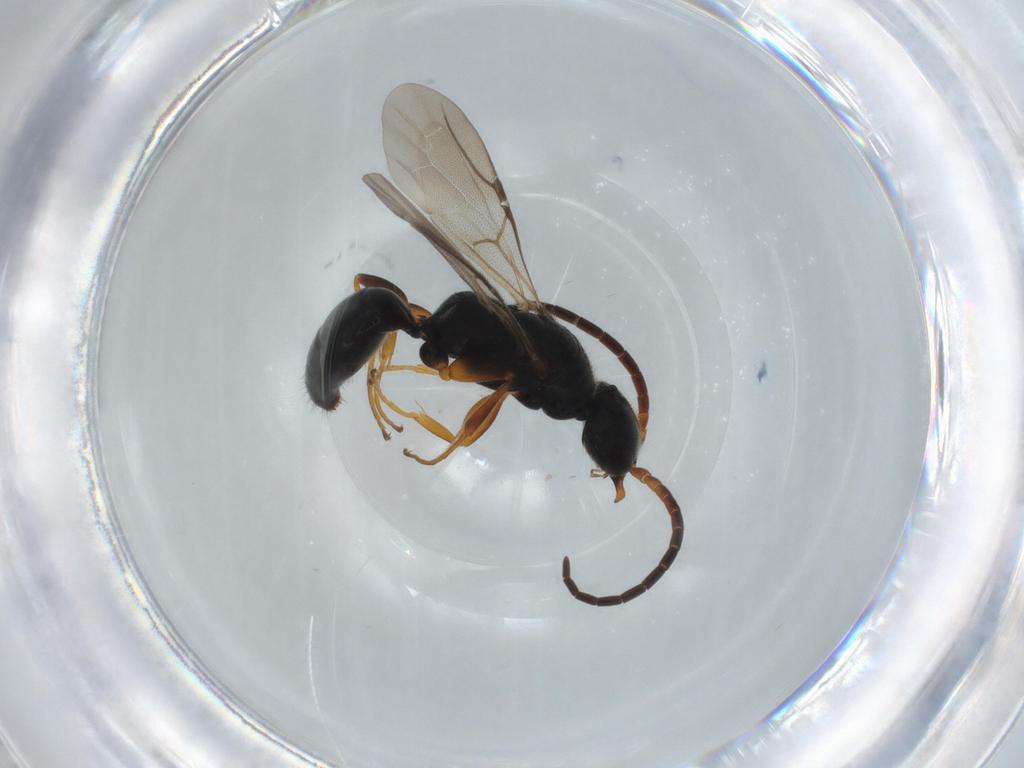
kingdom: Animalia
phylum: Arthropoda
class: Insecta
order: Hymenoptera
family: Bethylidae
